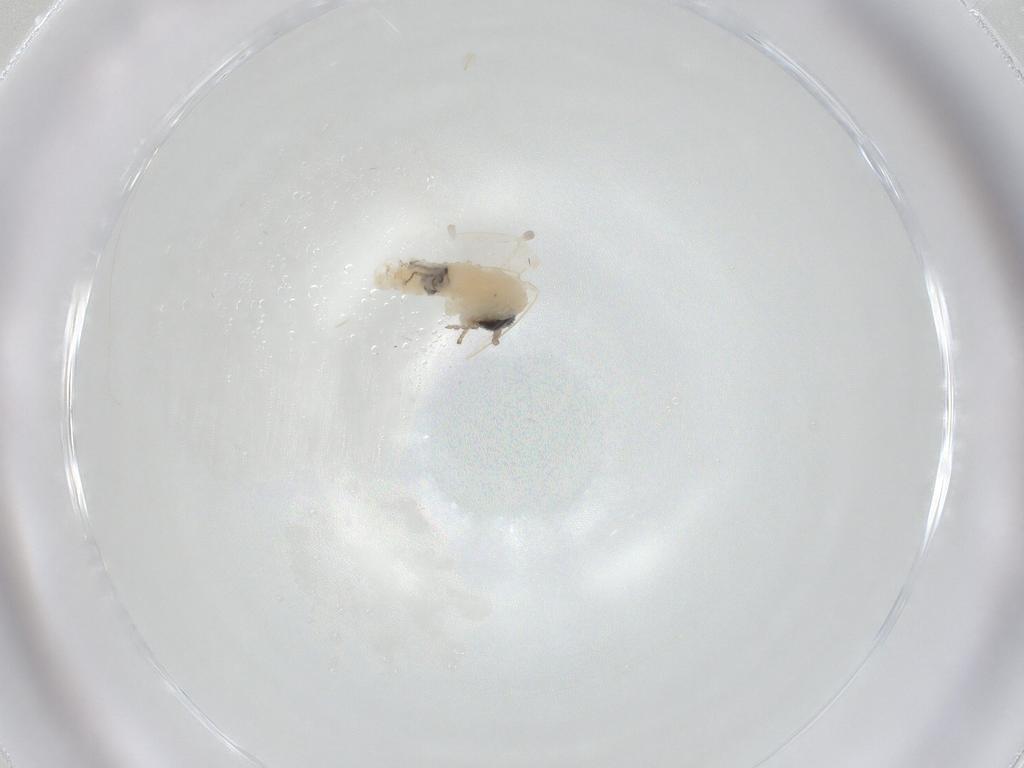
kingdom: Animalia
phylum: Arthropoda
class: Insecta
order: Diptera
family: Psychodidae
